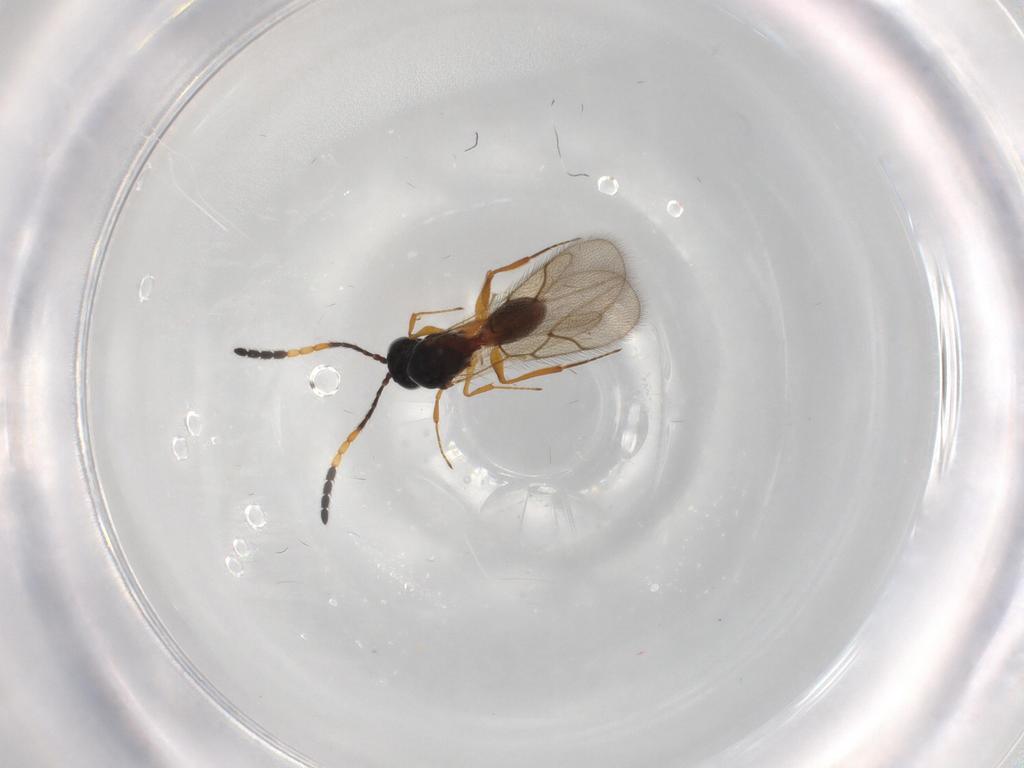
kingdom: Animalia
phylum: Arthropoda
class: Insecta
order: Hymenoptera
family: Figitidae
